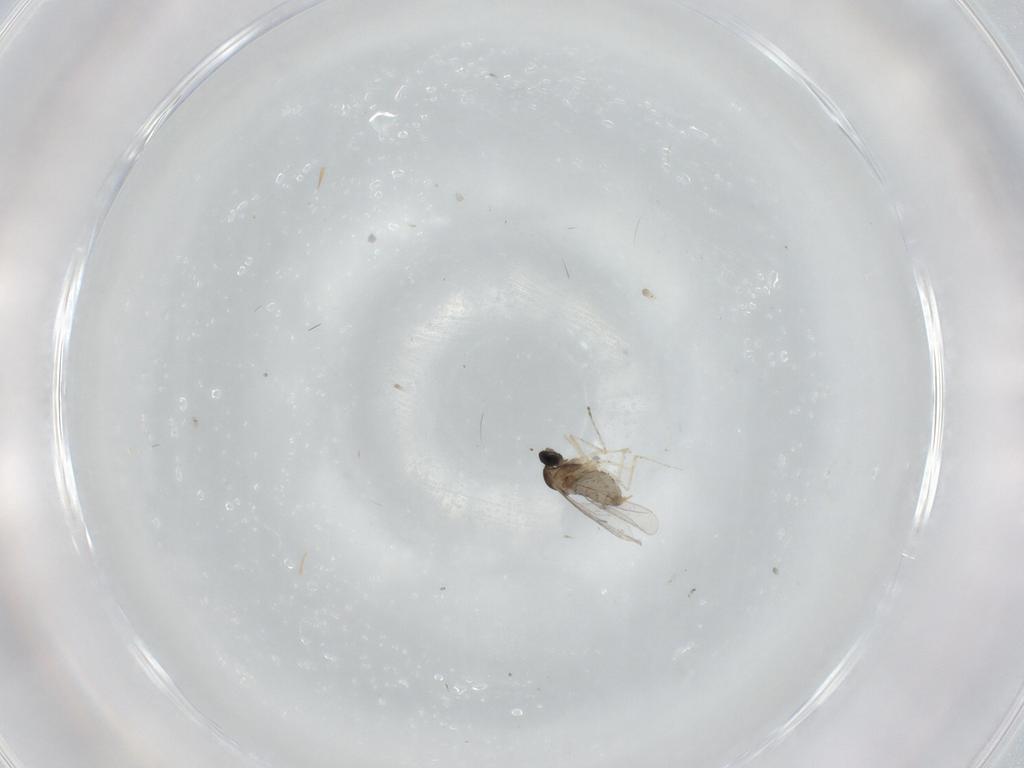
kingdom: Animalia
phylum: Arthropoda
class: Insecta
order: Diptera
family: Cecidomyiidae
